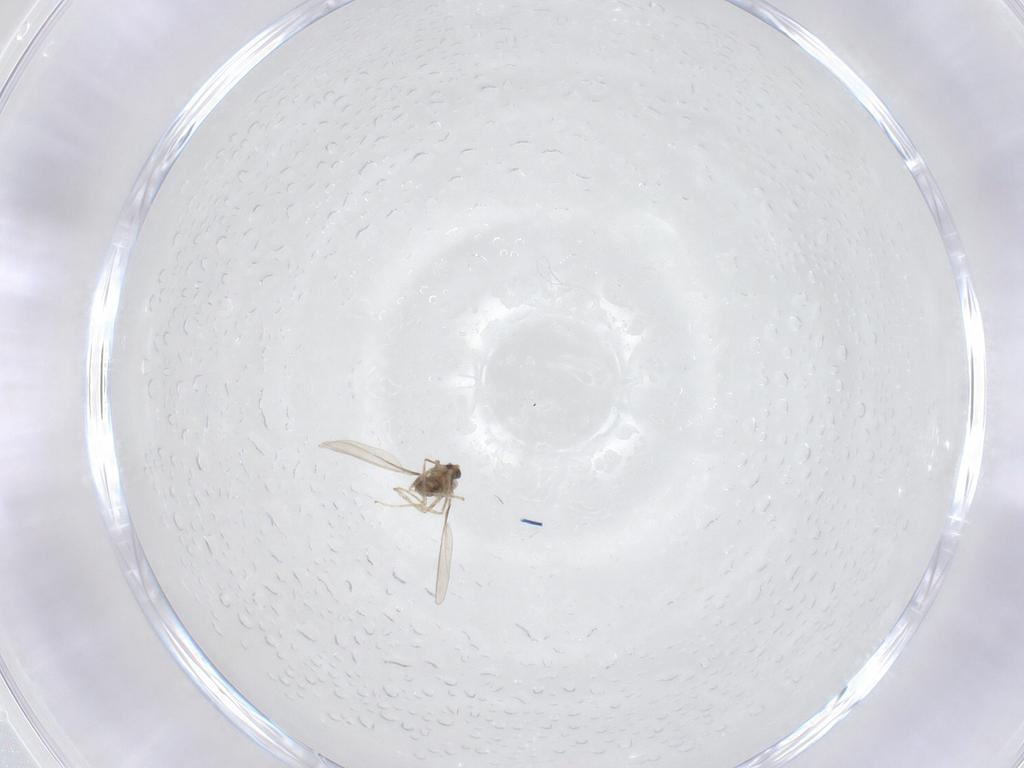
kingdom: Animalia
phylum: Arthropoda
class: Insecta
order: Diptera
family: Cecidomyiidae
